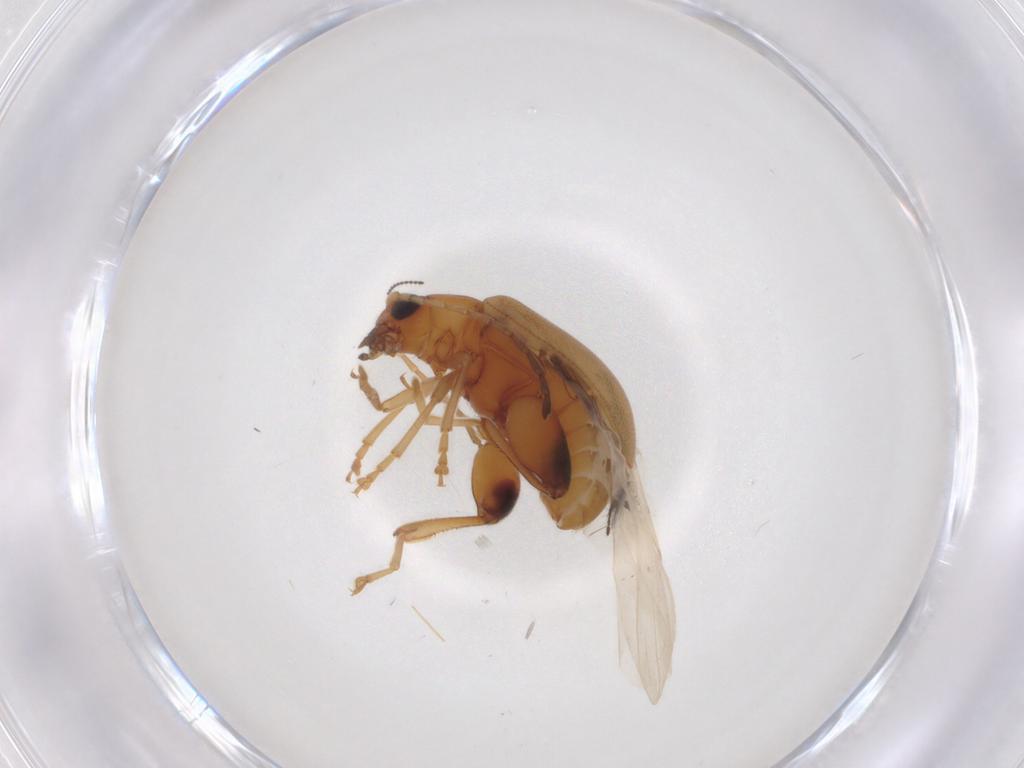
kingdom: Animalia
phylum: Arthropoda
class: Insecta
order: Coleoptera
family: Chrysomelidae
